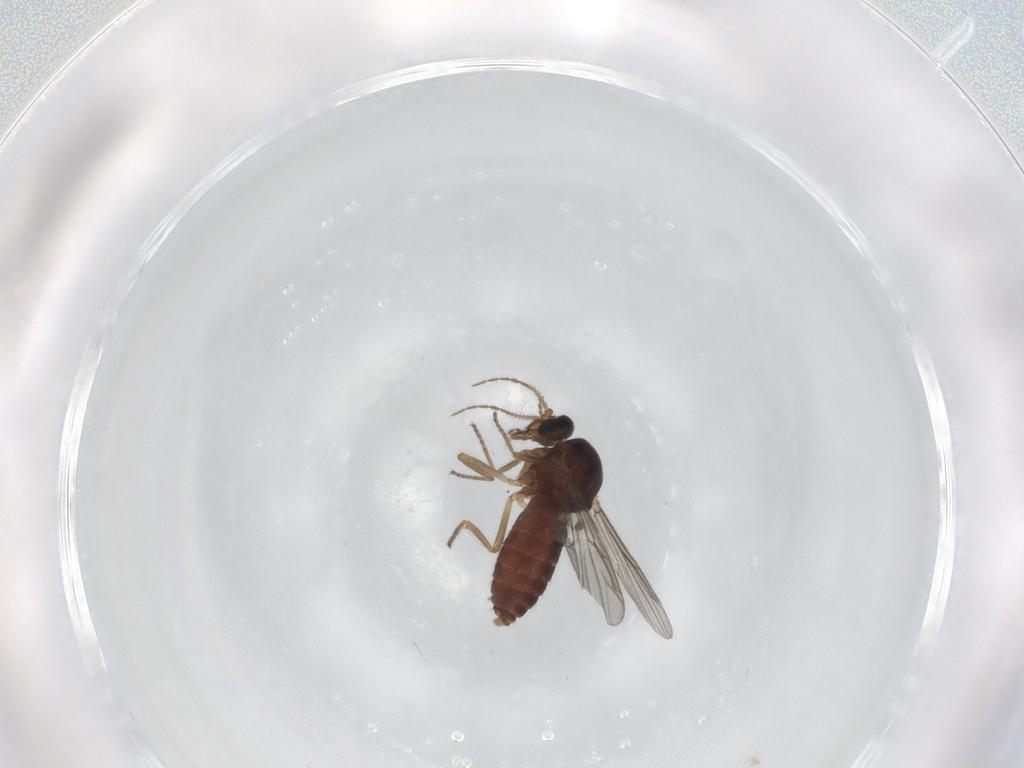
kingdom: Animalia
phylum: Arthropoda
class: Insecta
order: Diptera
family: Ceratopogonidae
